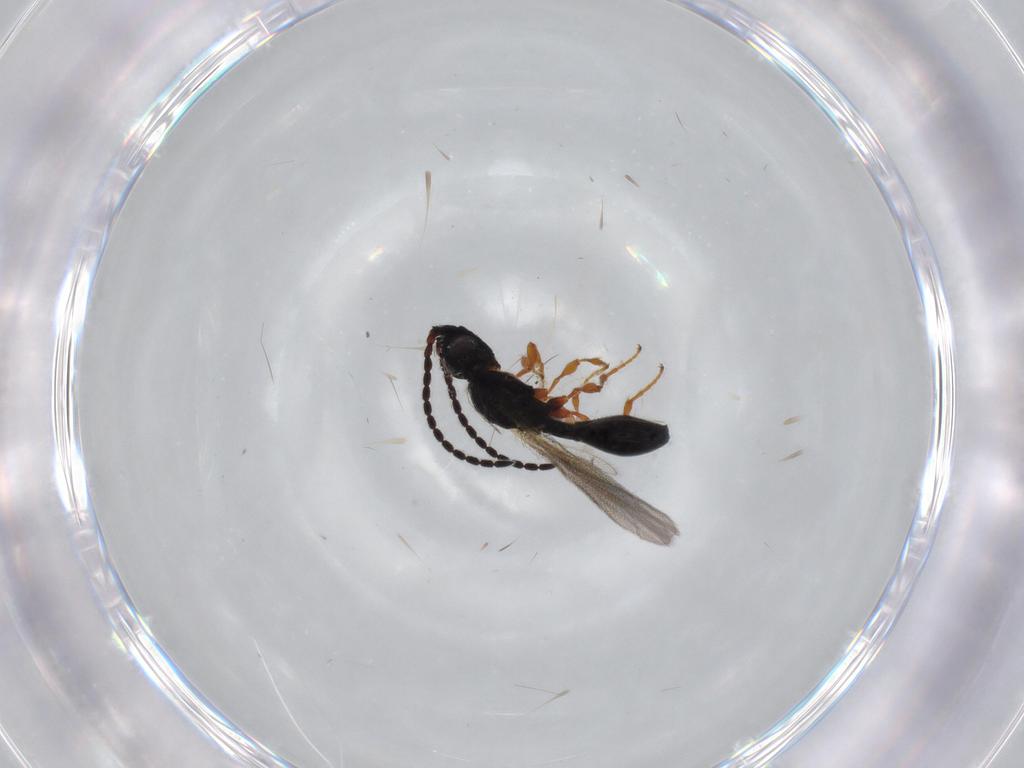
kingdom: Animalia
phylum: Arthropoda
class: Insecta
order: Hymenoptera
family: Diapriidae
